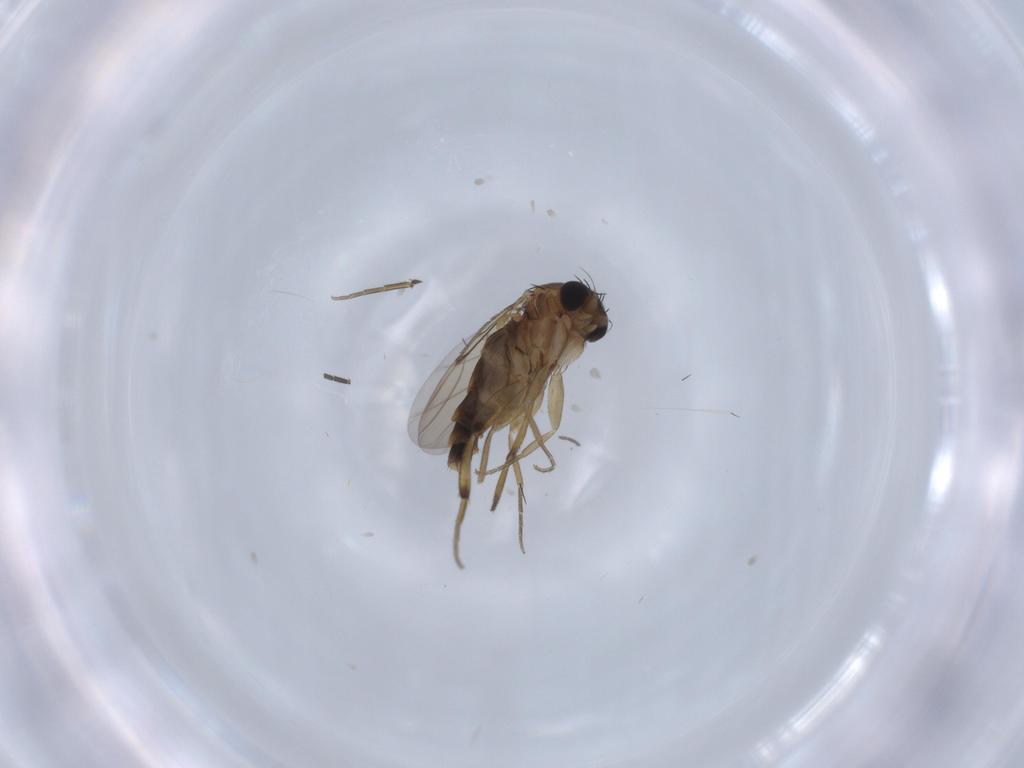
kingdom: Animalia
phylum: Arthropoda
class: Insecta
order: Diptera
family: Phoridae
